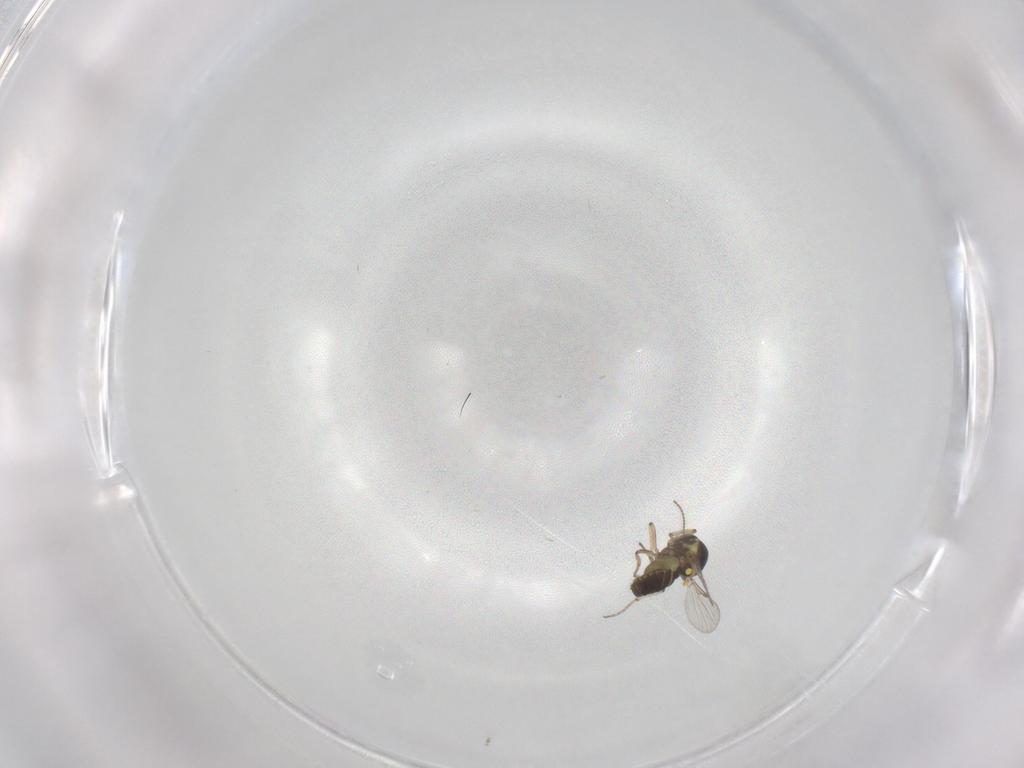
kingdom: Animalia
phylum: Arthropoda
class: Insecta
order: Diptera
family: Ceratopogonidae
